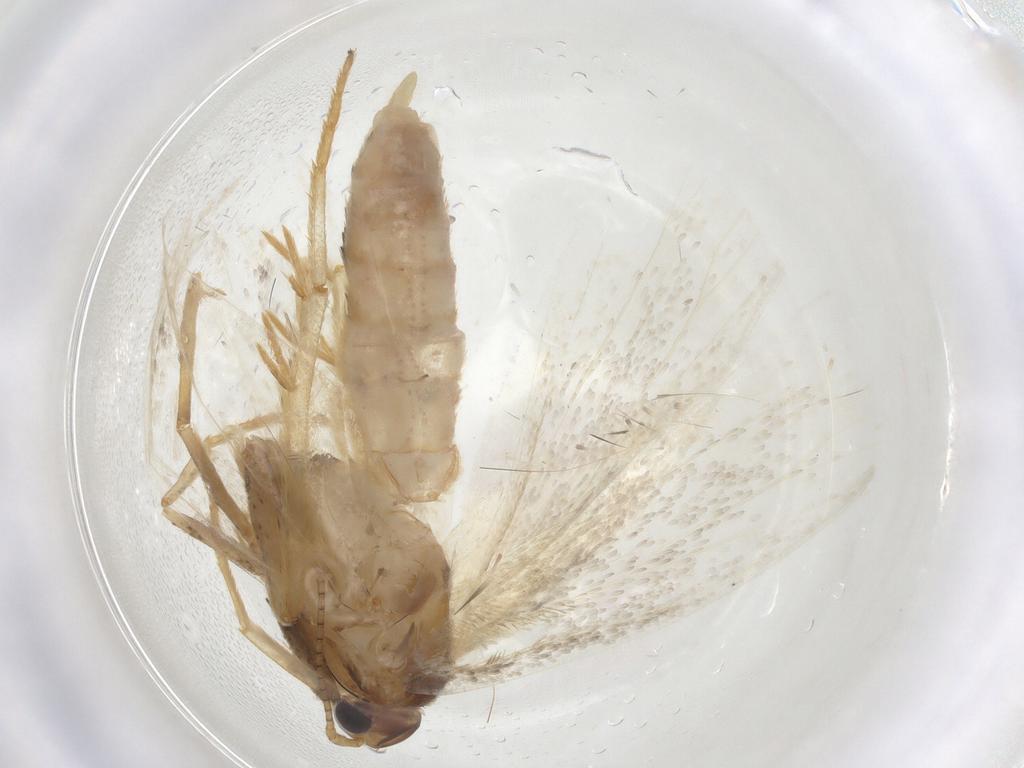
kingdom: Animalia
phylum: Arthropoda
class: Insecta
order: Lepidoptera
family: Depressariidae
